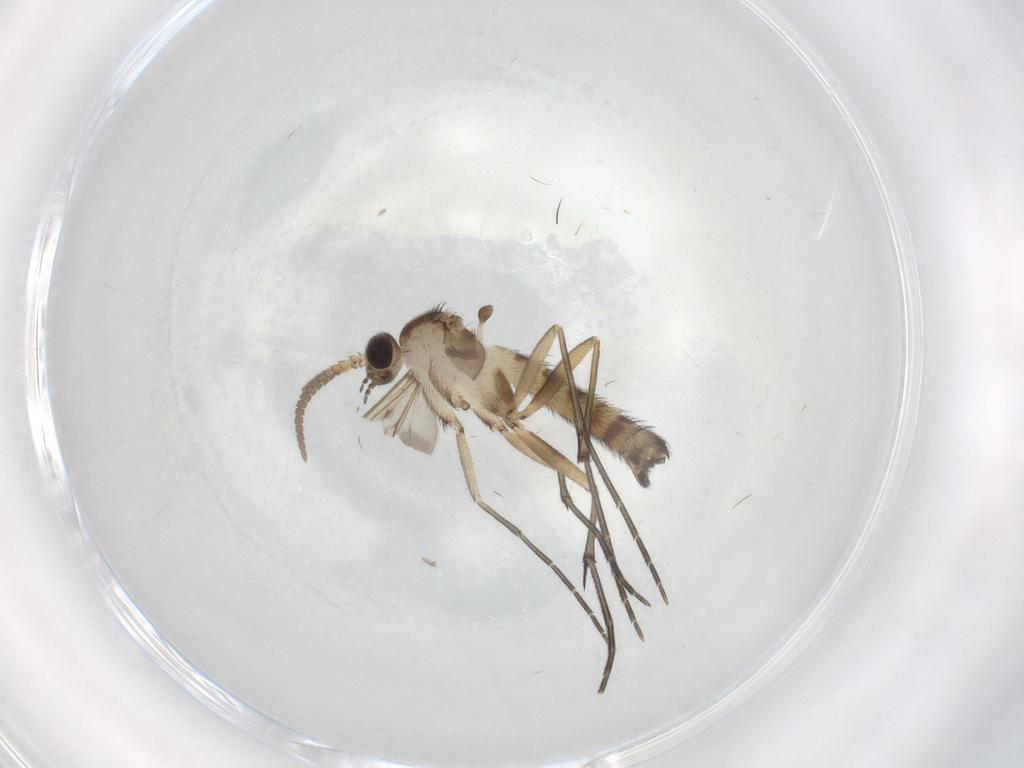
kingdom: Animalia
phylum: Arthropoda
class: Insecta
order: Diptera
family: Keroplatidae
